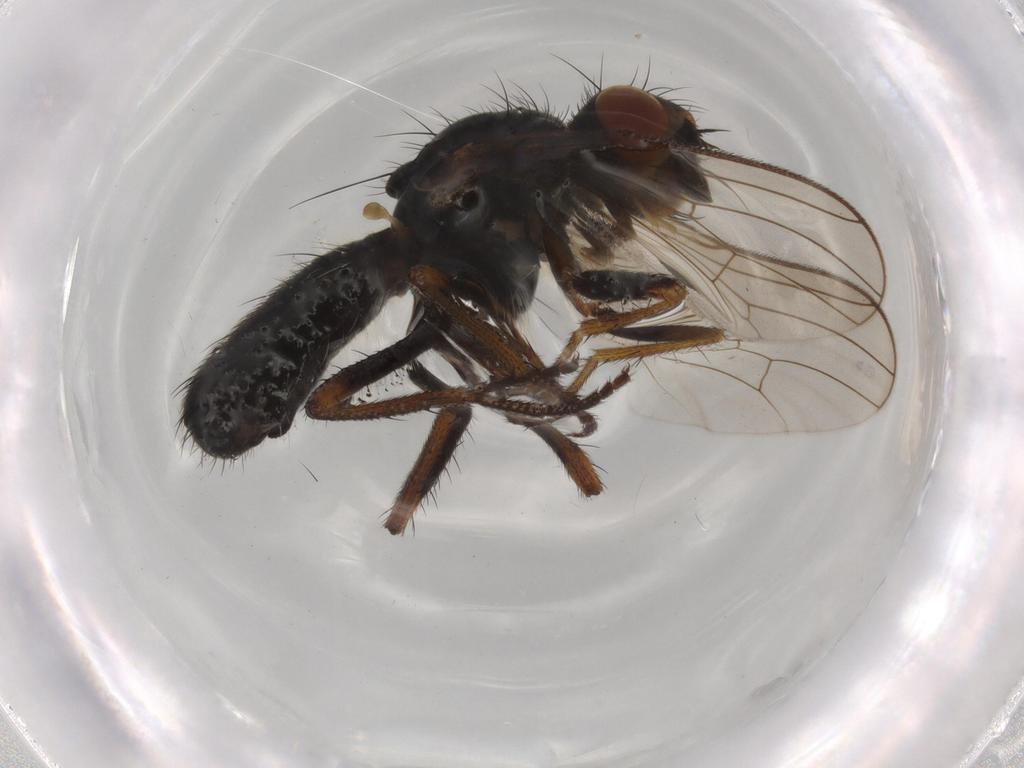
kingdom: Animalia
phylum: Arthropoda
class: Insecta
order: Diptera
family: Scathophagidae
